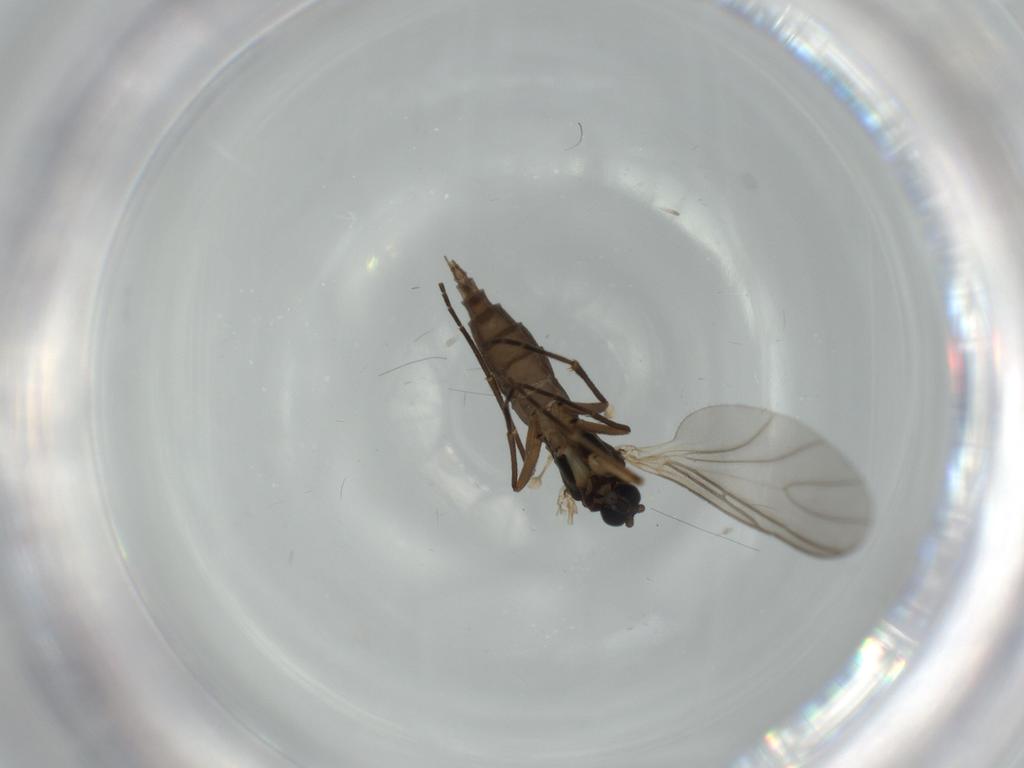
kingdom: Animalia
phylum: Arthropoda
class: Insecta
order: Diptera
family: Sciaridae
